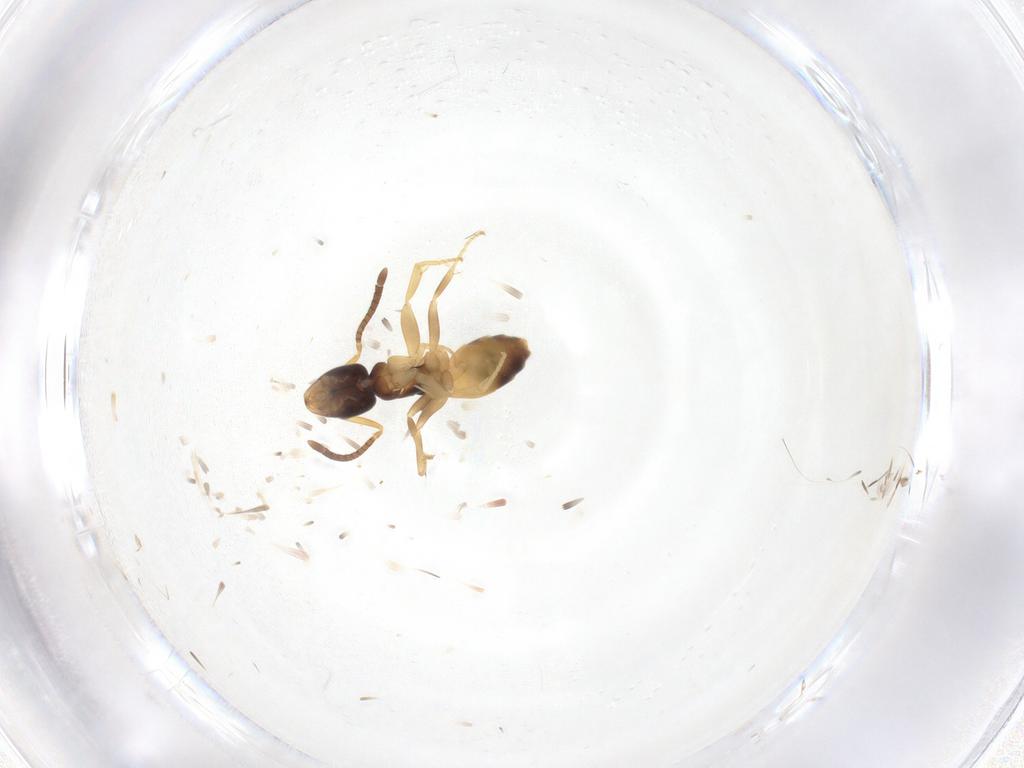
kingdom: Animalia
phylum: Arthropoda
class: Insecta
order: Hymenoptera
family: Formicidae
